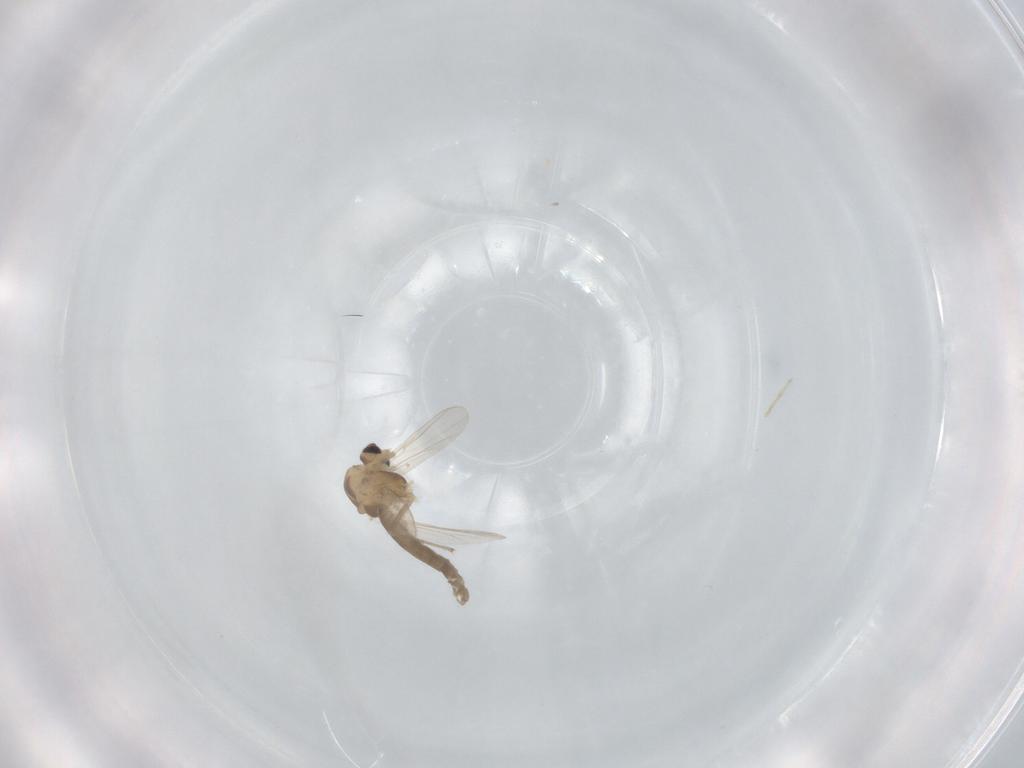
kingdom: Animalia
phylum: Arthropoda
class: Insecta
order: Diptera
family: Chironomidae
